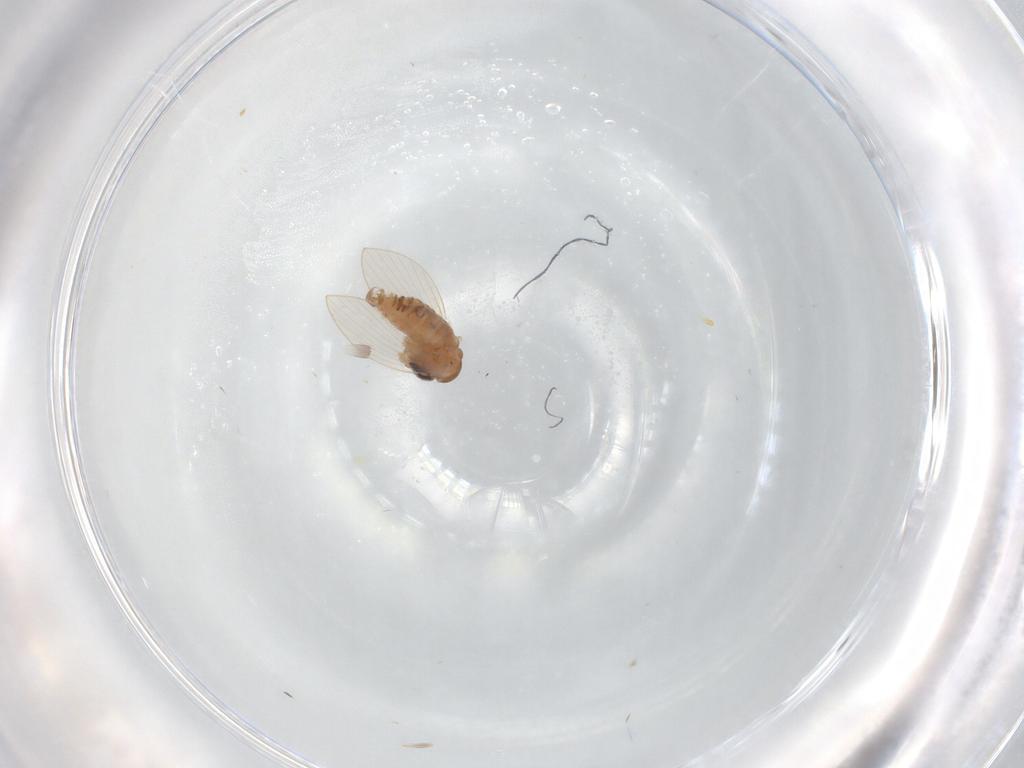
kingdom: Animalia
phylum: Arthropoda
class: Insecta
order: Diptera
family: Psychodidae
